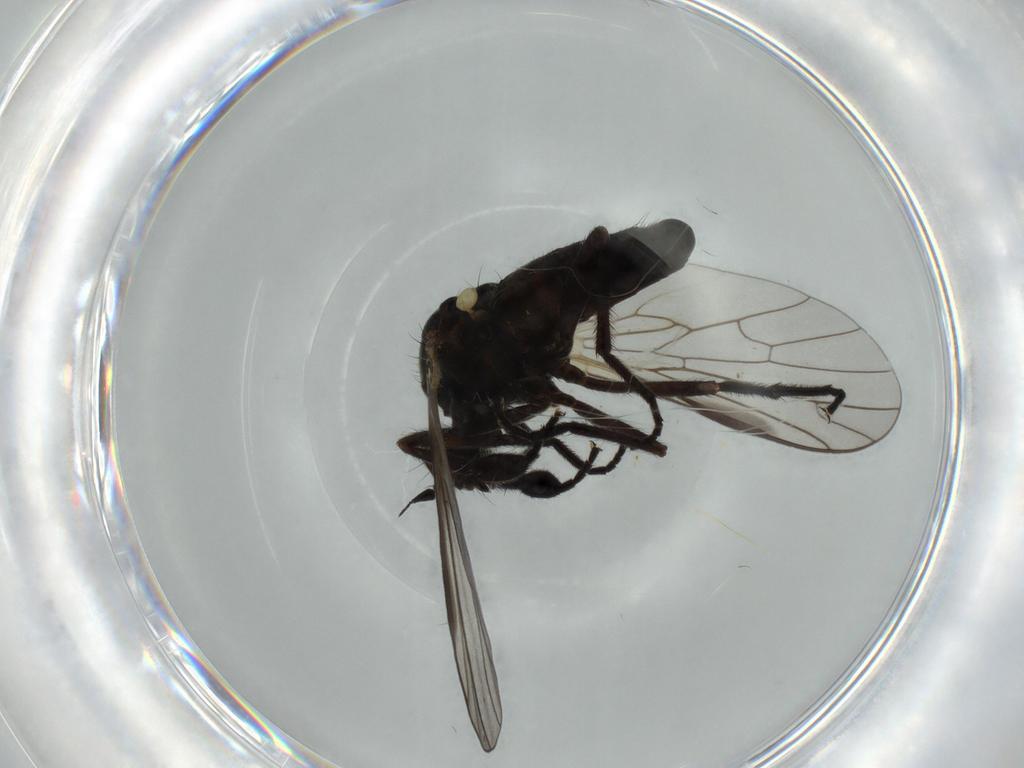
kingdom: Animalia
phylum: Arthropoda
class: Insecta
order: Diptera
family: Empididae
